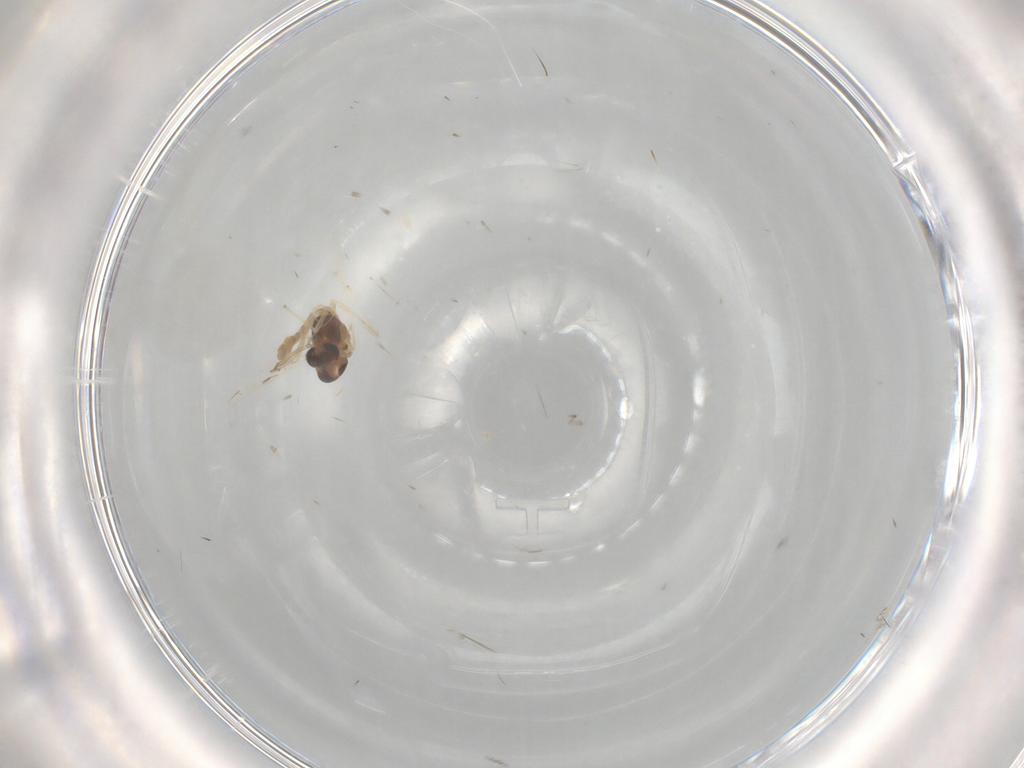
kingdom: Animalia
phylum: Arthropoda
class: Insecta
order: Diptera
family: Chironomidae
